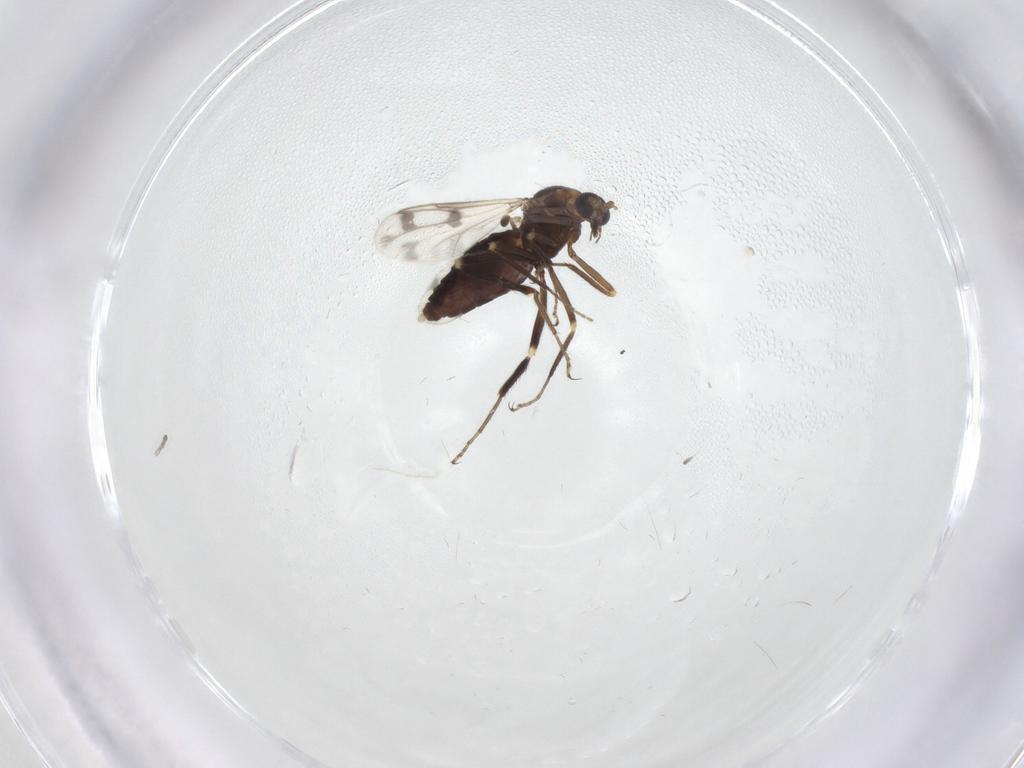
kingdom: Animalia
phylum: Arthropoda
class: Insecta
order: Diptera
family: Ceratopogonidae
